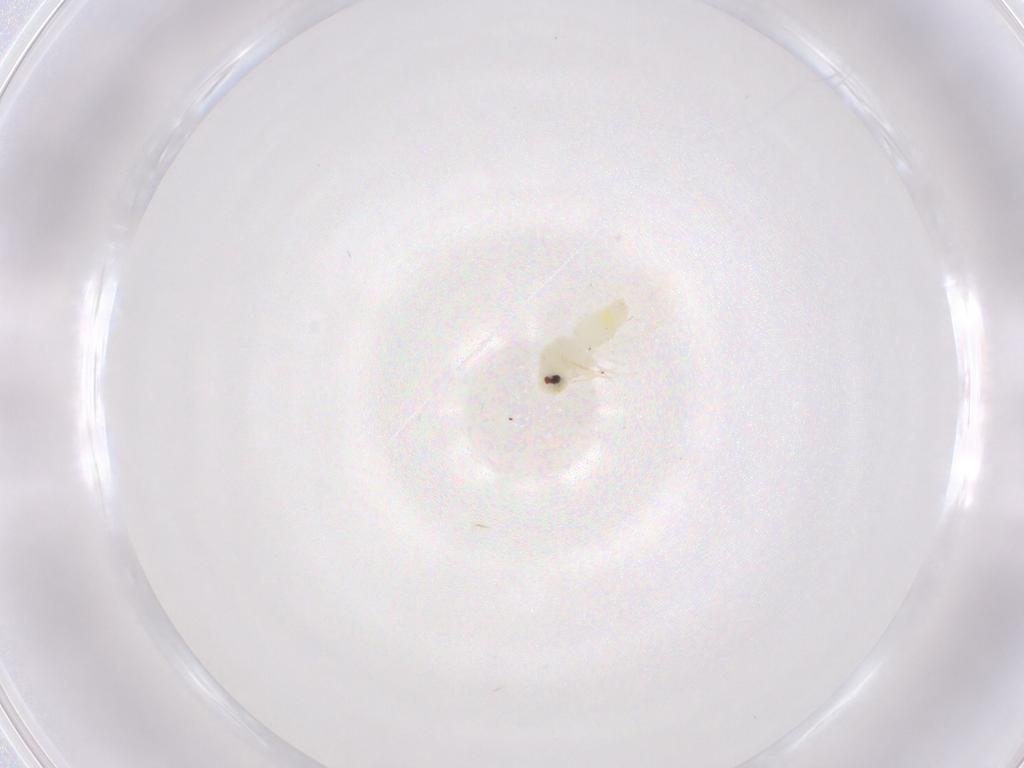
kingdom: Animalia
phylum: Arthropoda
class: Insecta
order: Hemiptera
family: Aleyrodidae
